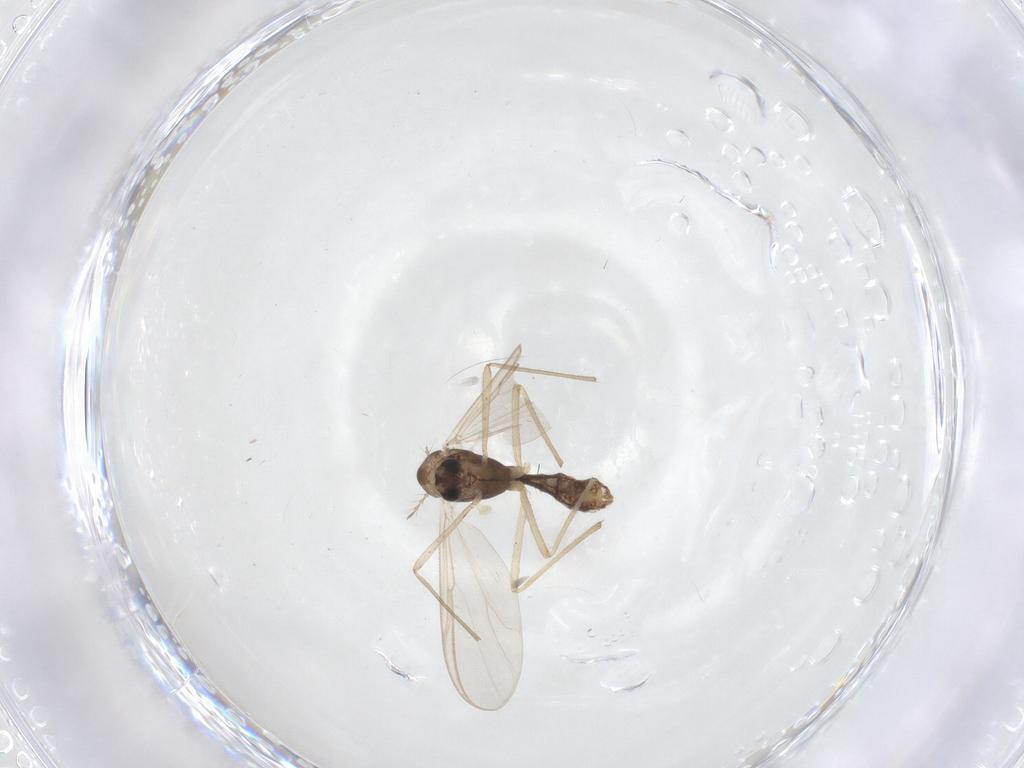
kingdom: Animalia
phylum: Arthropoda
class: Insecta
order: Diptera
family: Chironomidae
